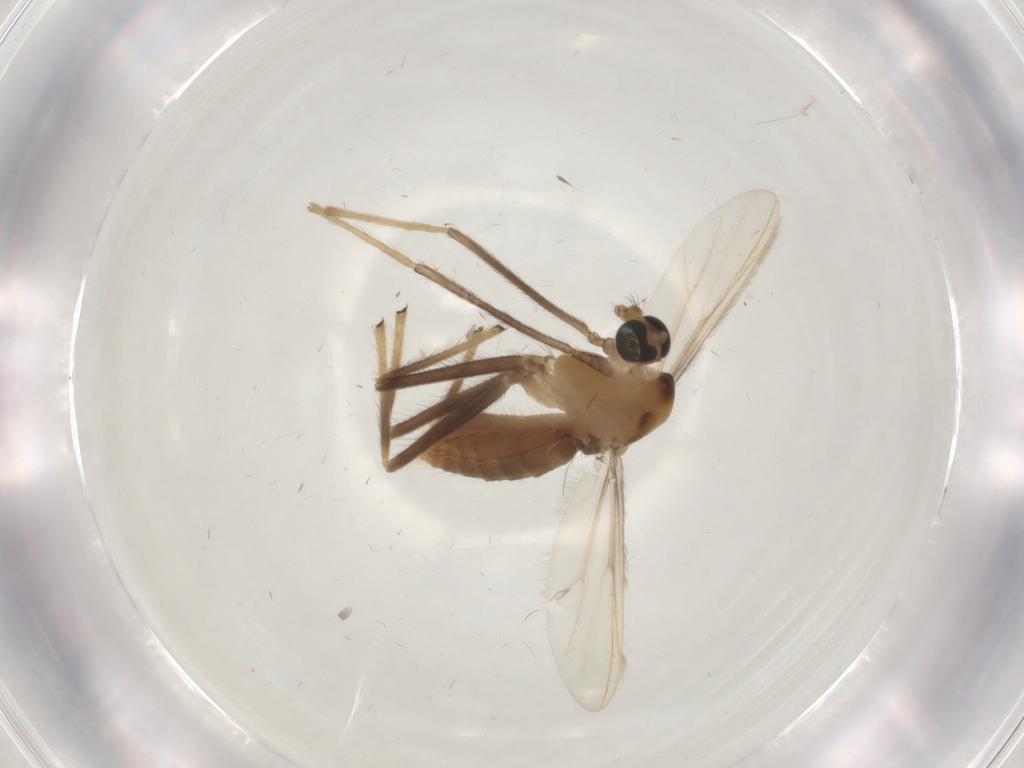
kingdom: Animalia
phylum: Arthropoda
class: Insecta
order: Diptera
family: Chironomidae
